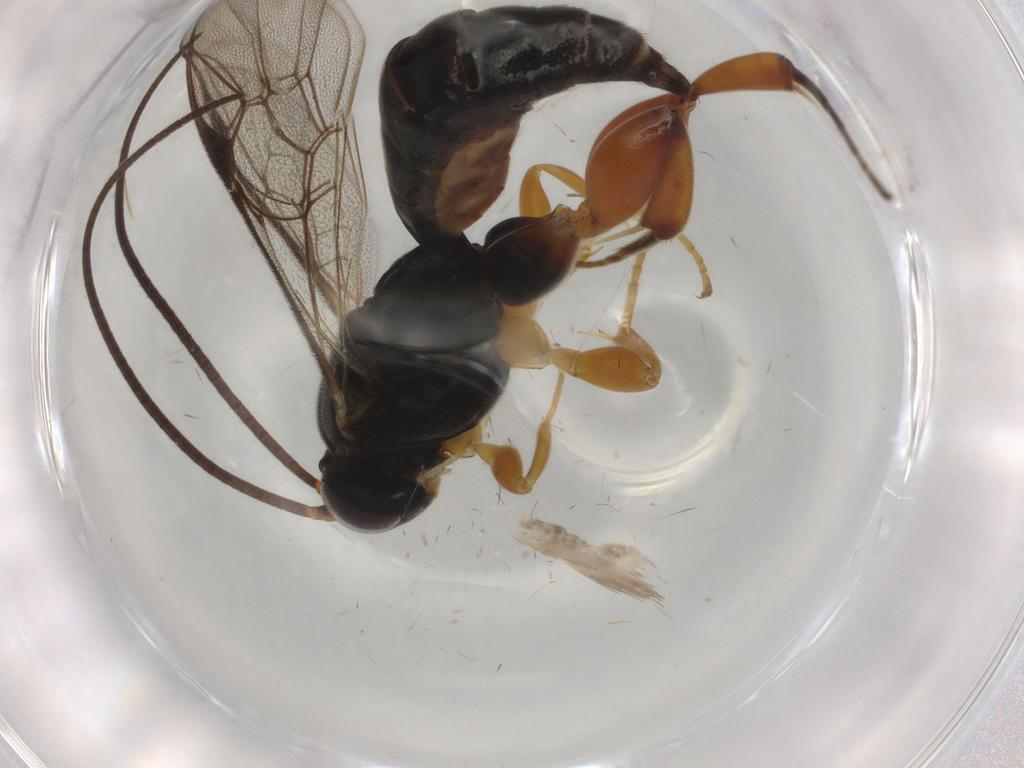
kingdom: Animalia
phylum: Arthropoda
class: Insecta
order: Hymenoptera
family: Ichneumonidae
